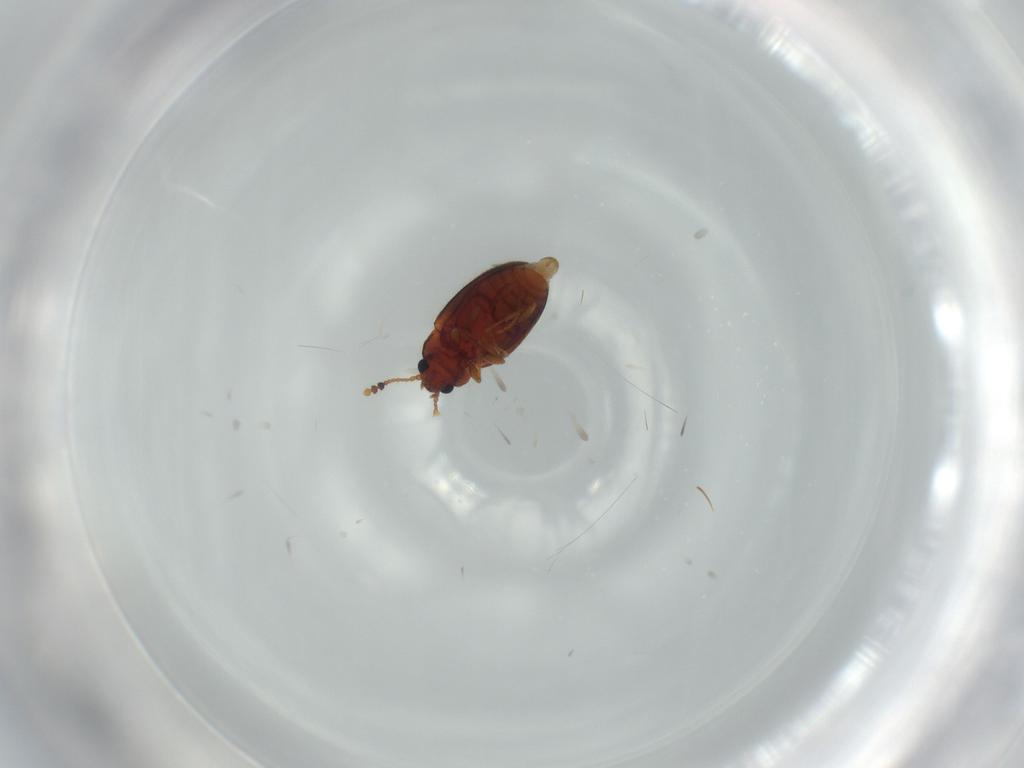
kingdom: Animalia
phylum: Arthropoda
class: Insecta
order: Coleoptera
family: Erotylidae
